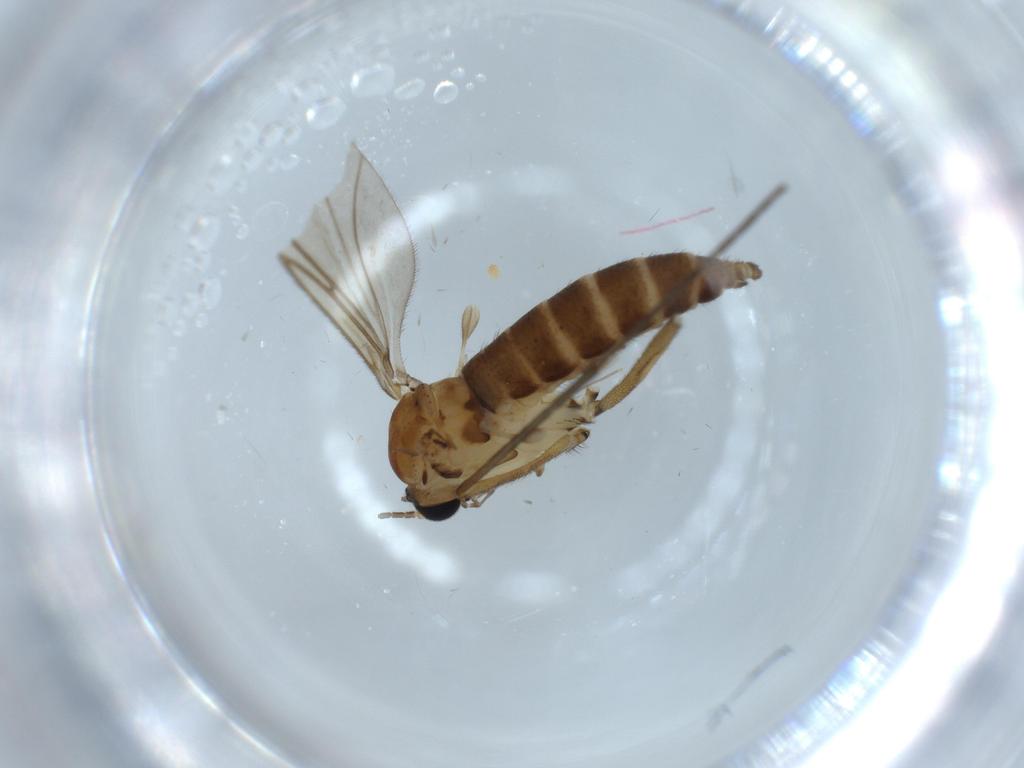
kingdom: Animalia
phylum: Arthropoda
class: Insecta
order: Diptera
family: Sciaridae
